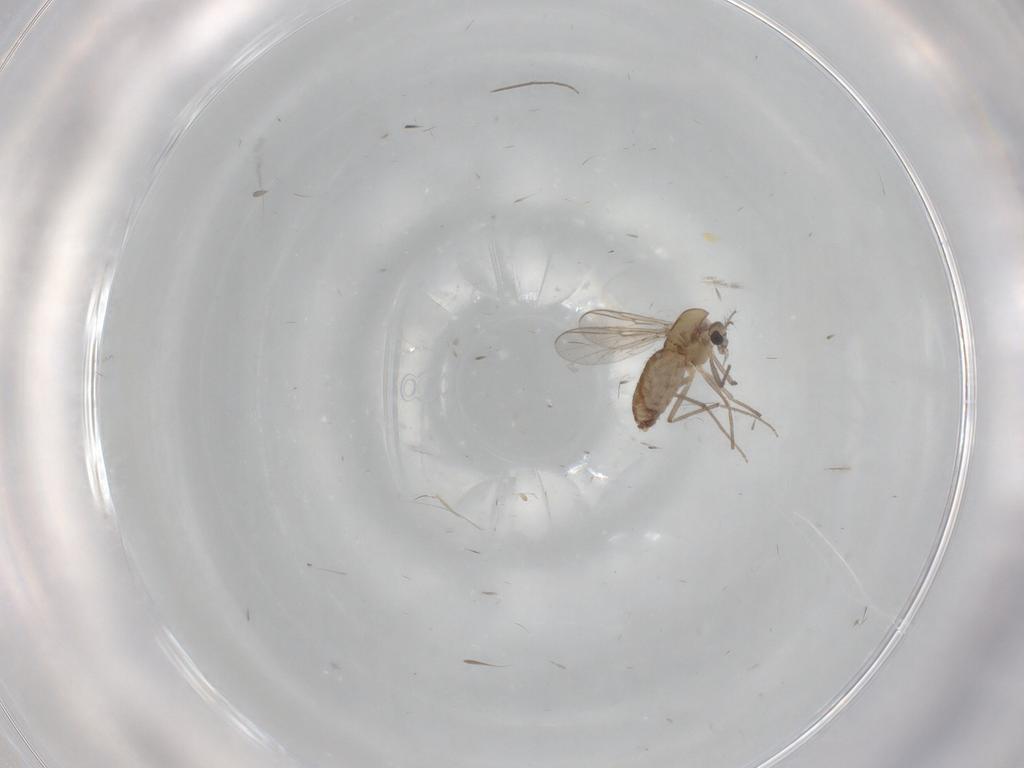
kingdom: Animalia
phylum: Arthropoda
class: Insecta
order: Diptera
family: Chironomidae
